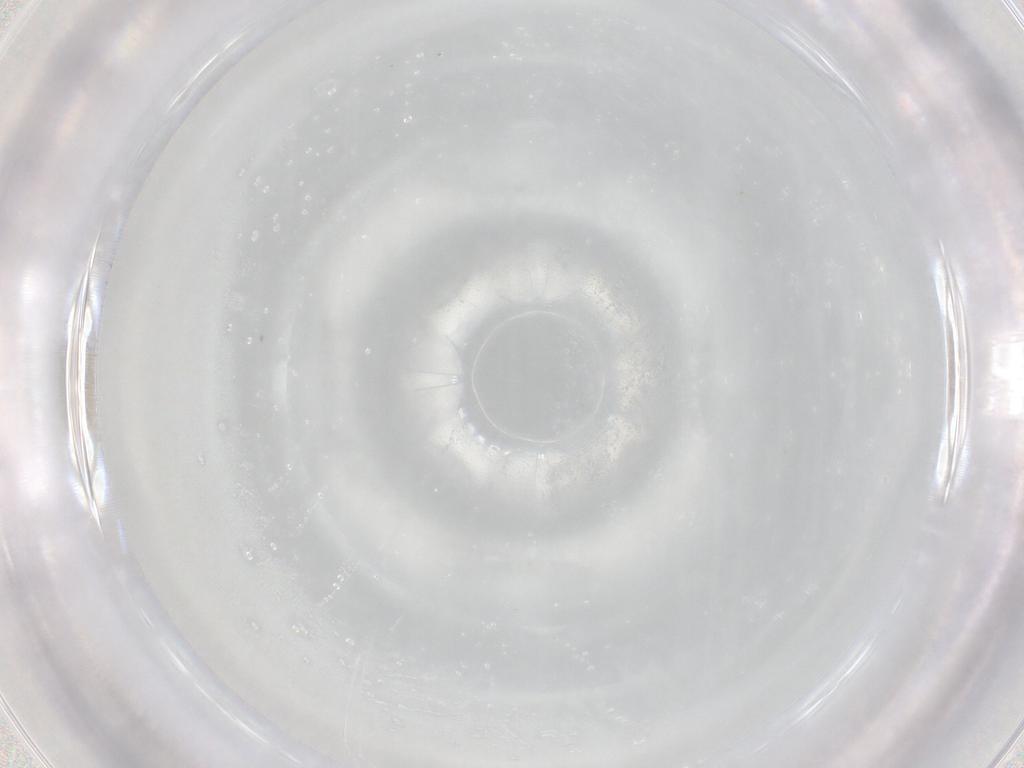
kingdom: Animalia
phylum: Arthropoda
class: Insecta
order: Diptera
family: Cecidomyiidae
